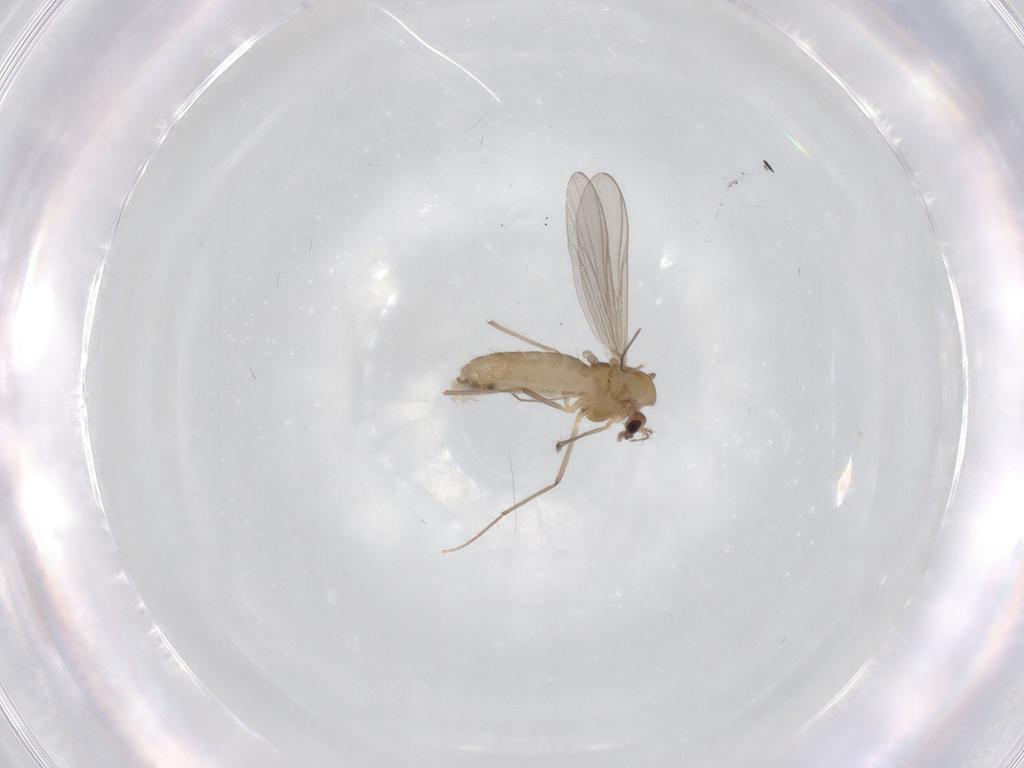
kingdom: Animalia
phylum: Arthropoda
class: Insecta
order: Diptera
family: Chironomidae
